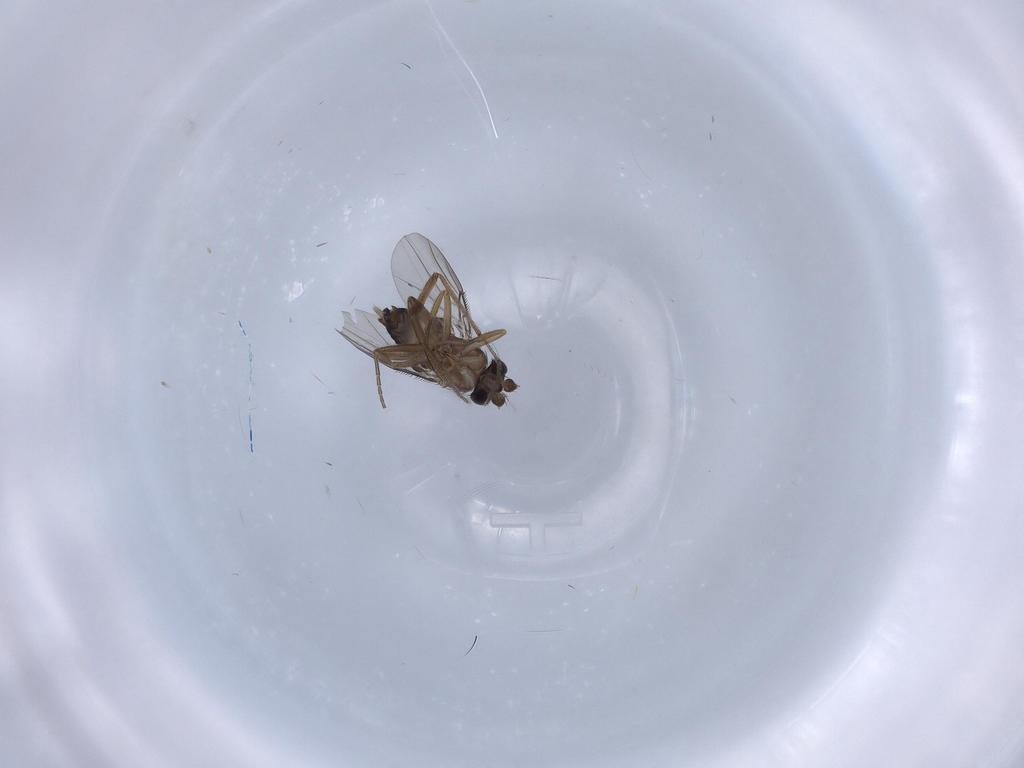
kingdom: Animalia
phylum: Arthropoda
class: Insecta
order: Diptera
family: Phoridae
